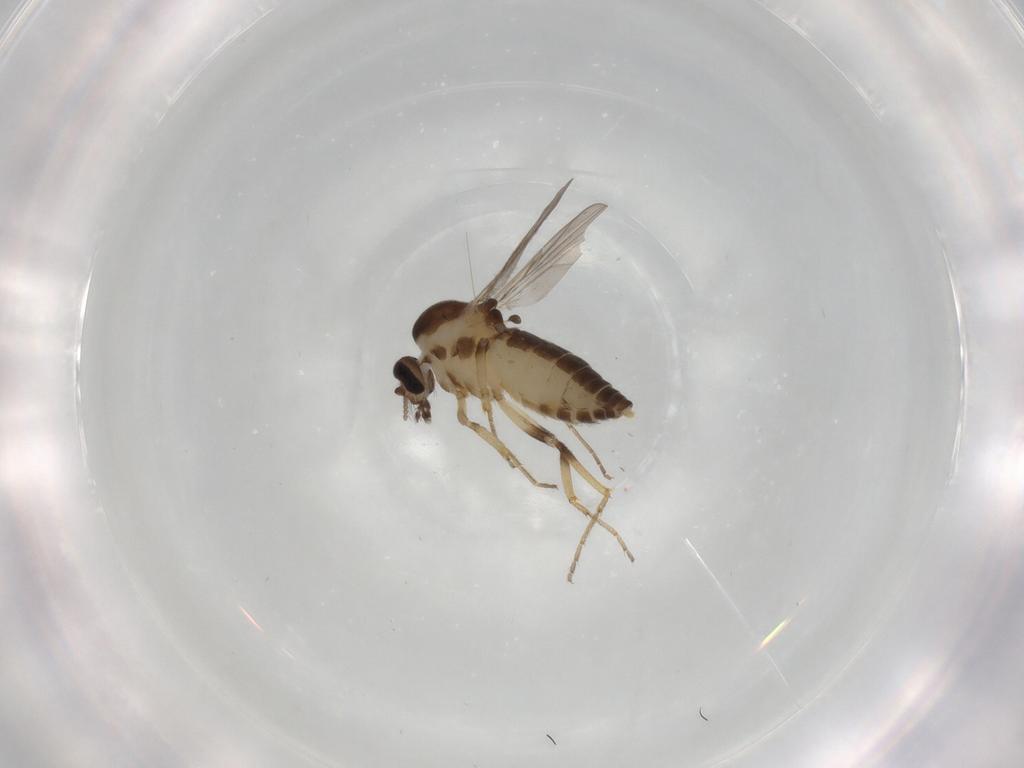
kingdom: Animalia
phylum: Arthropoda
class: Insecta
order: Diptera
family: Ceratopogonidae
